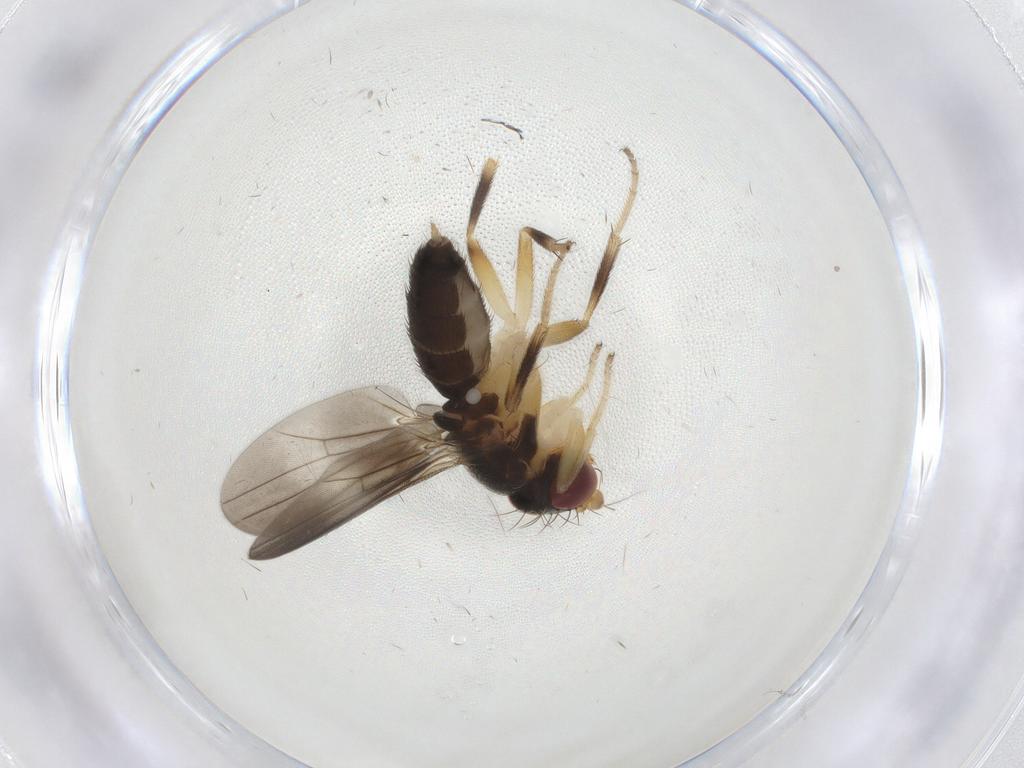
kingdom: Animalia
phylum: Arthropoda
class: Insecta
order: Diptera
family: Clusiidae
